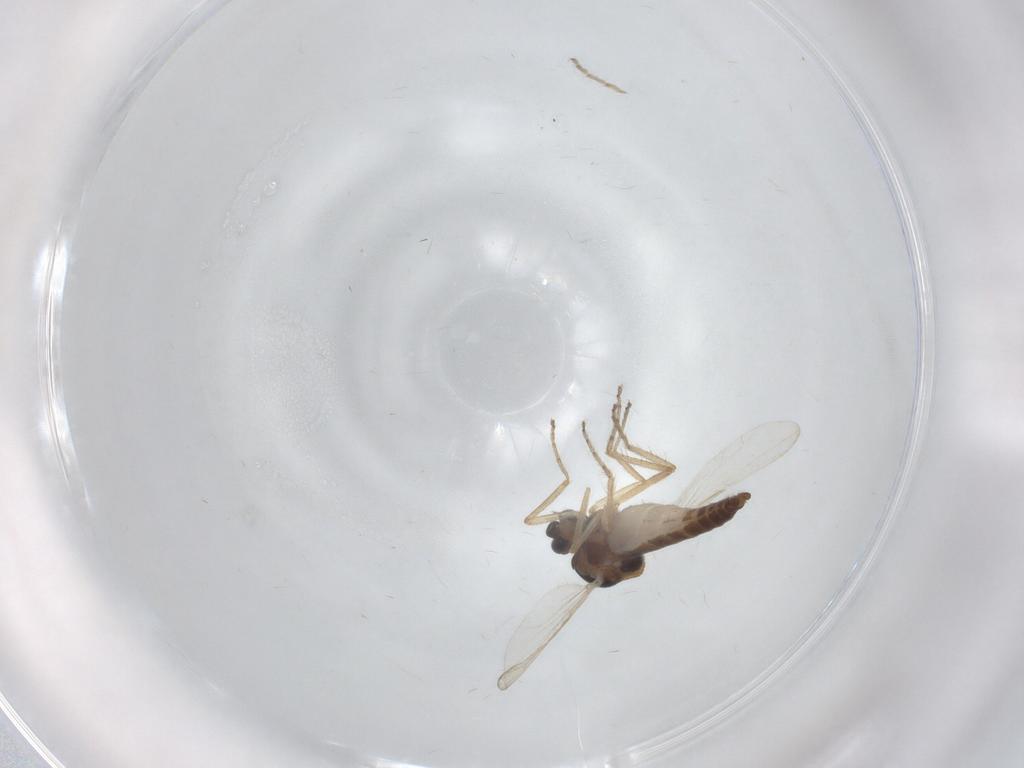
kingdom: Animalia
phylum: Arthropoda
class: Insecta
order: Diptera
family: Ceratopogonidae
